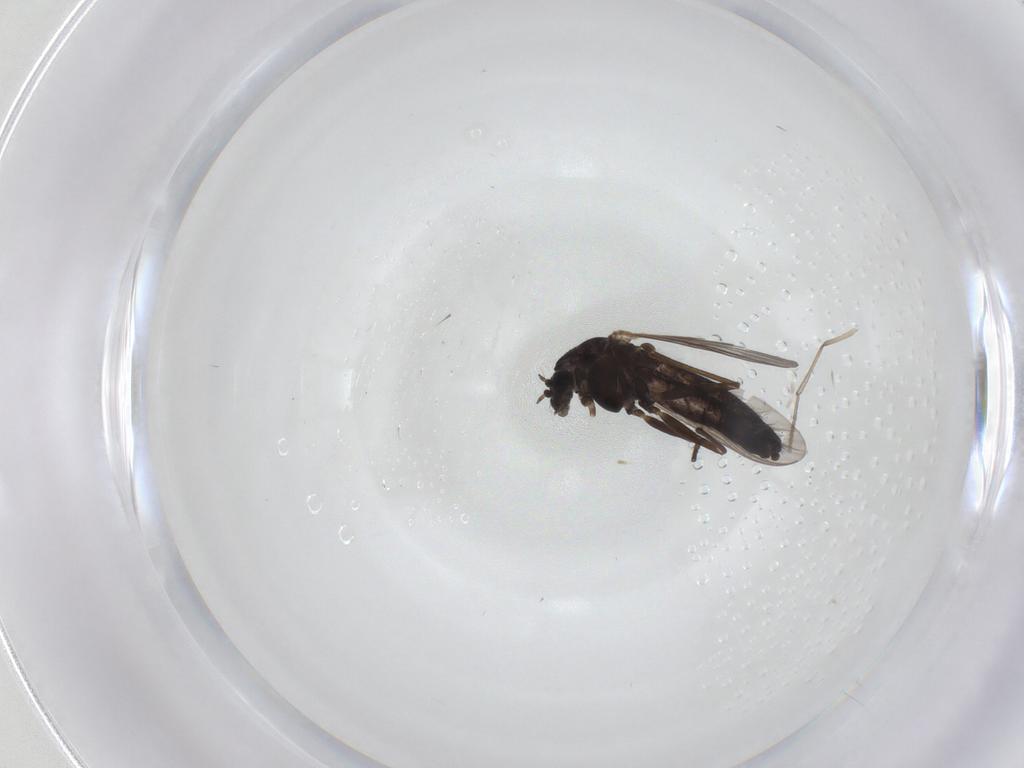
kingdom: Animalia
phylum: Arthropoda
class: Insecta
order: Diptera
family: Chironomidae
